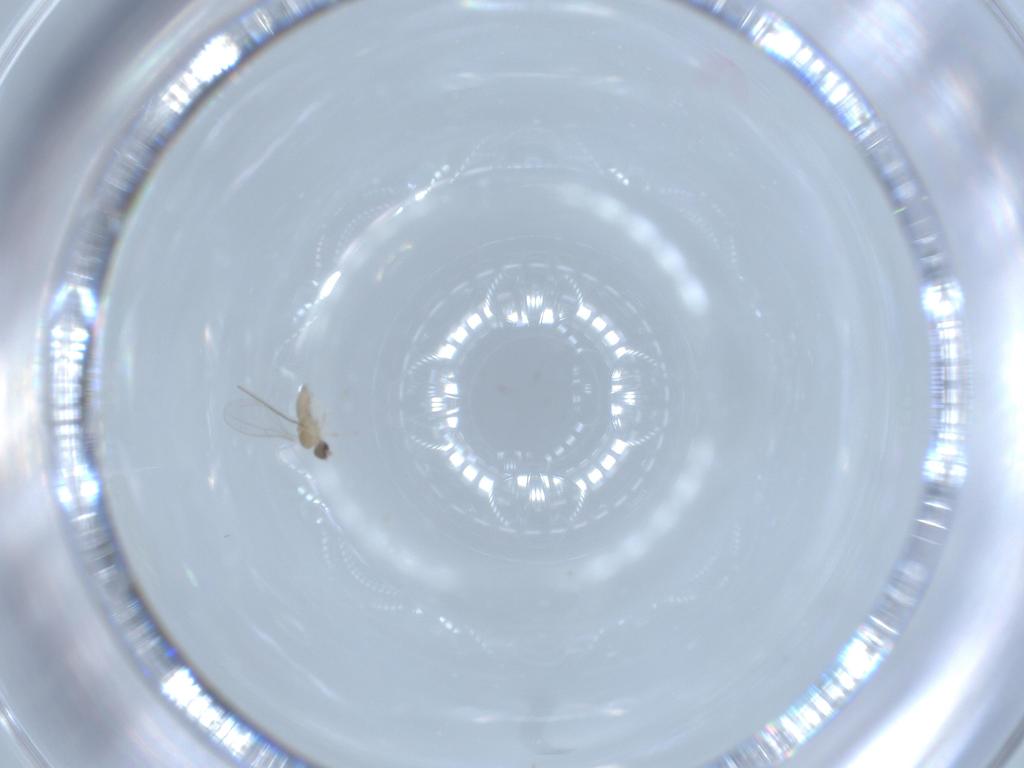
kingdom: Animalia
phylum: Arthropoda
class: Insecta
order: Diptera
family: Cecidomyiidae
